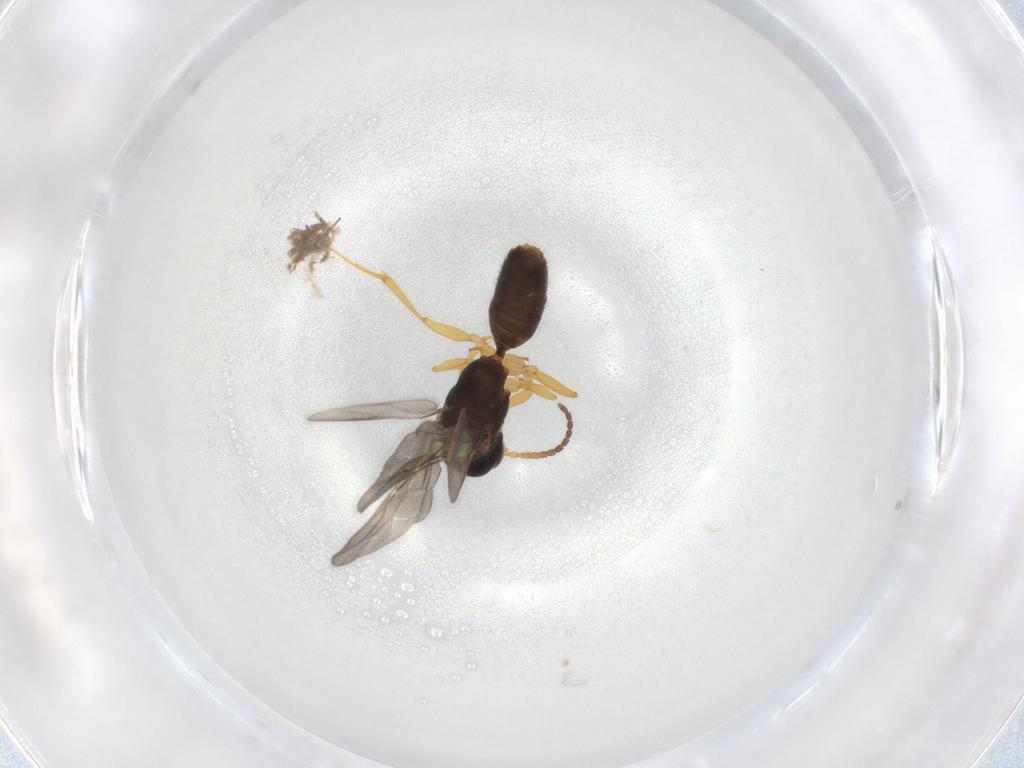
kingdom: Animalia
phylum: Arthropoda
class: Insecta
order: Hymenoptera
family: Bethylidae
